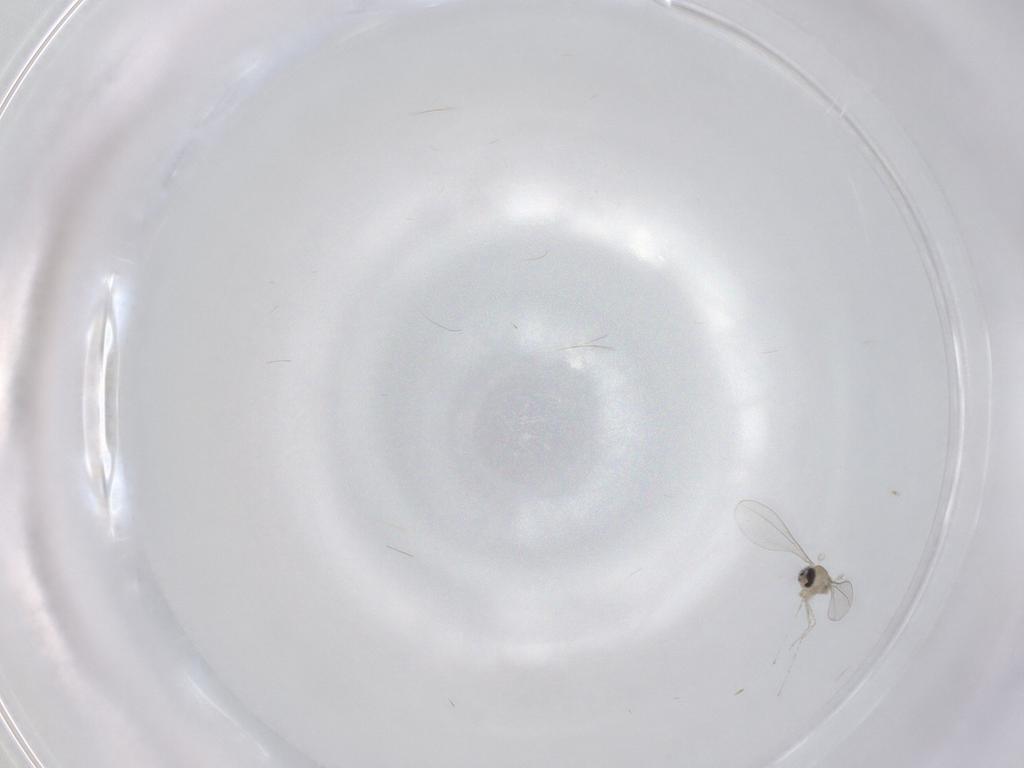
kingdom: Animalia
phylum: Arthropoda
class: Insecta
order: Diptera
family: Cecidomyiidae
